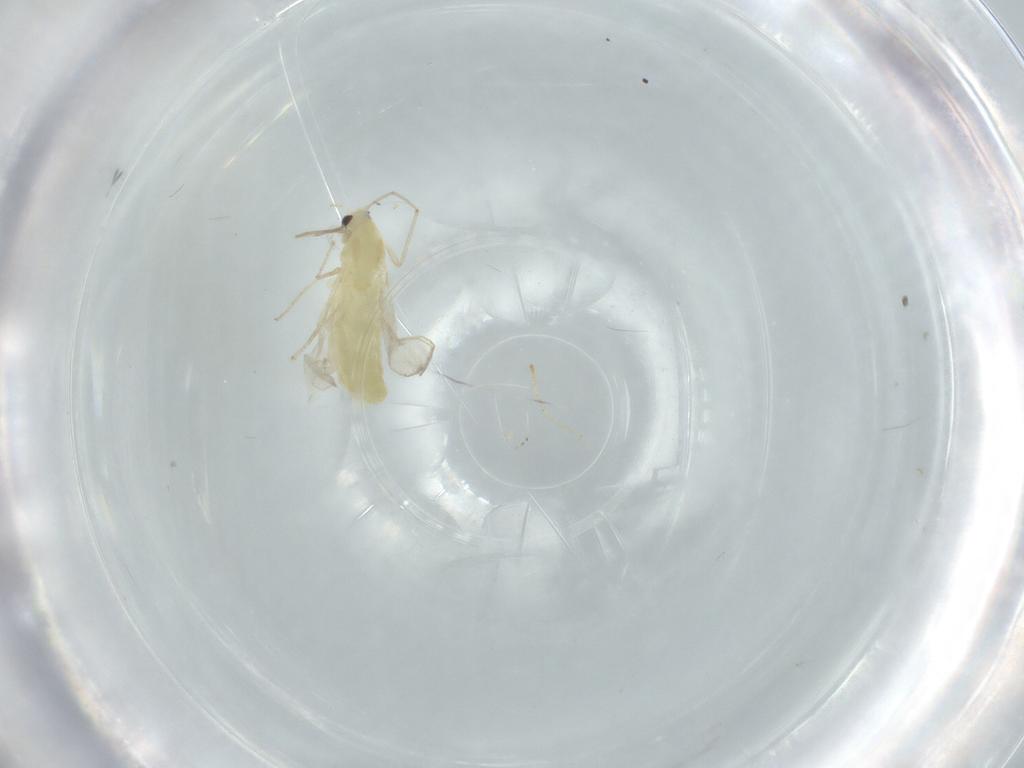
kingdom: Animalia
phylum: Arthropoda
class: Insecta
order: Diptera
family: Chironomidae
